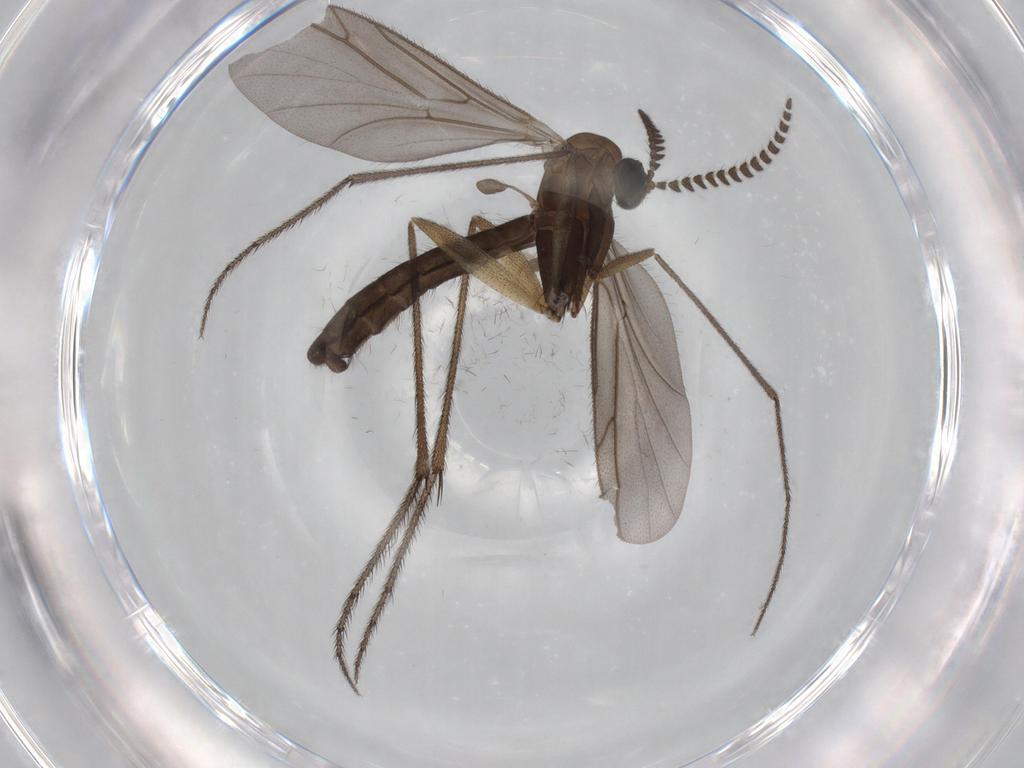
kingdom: Animalia
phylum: Arthropoda
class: Insecta
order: Diptera
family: Ditomyiidae
